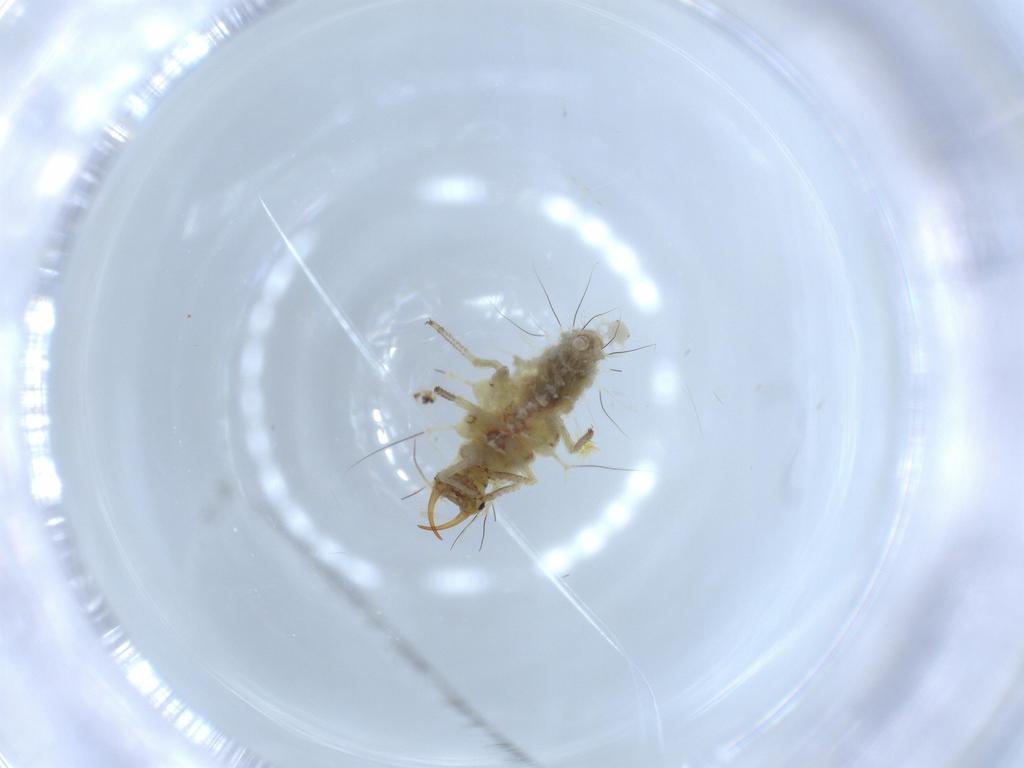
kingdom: Animalia
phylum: Arthropoda
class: Insecta
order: Neuroptera
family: Chrysopidae
